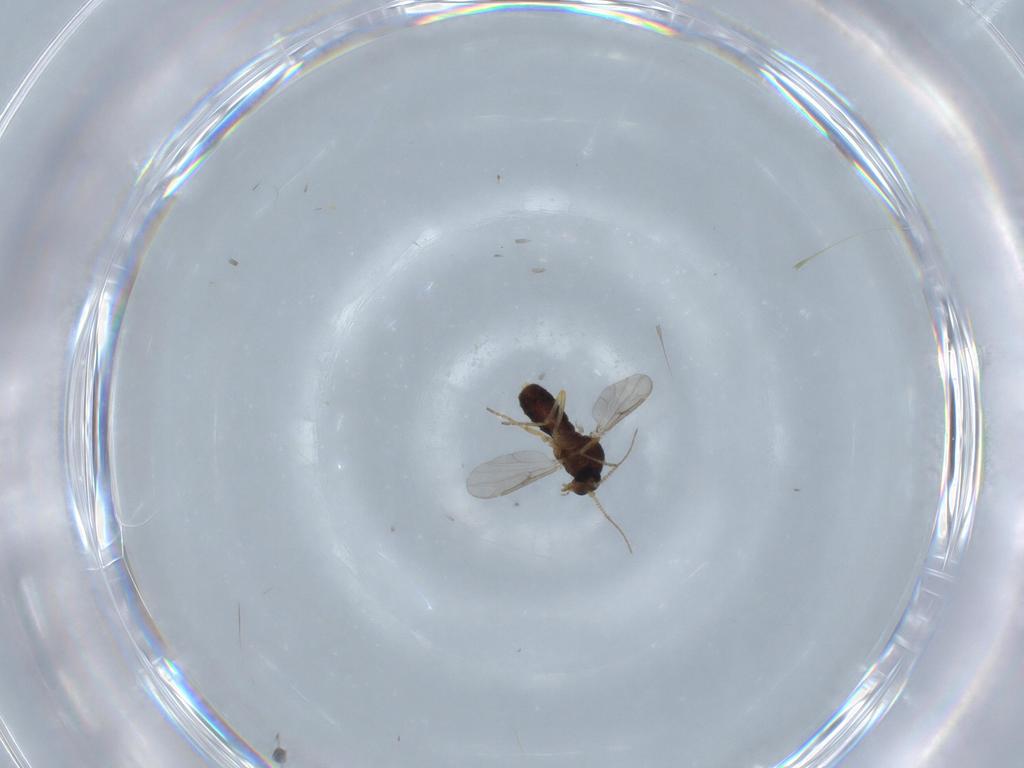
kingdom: Animalia
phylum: Arthropoda
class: Insecta
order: Diptera
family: Ceratopogonidae
